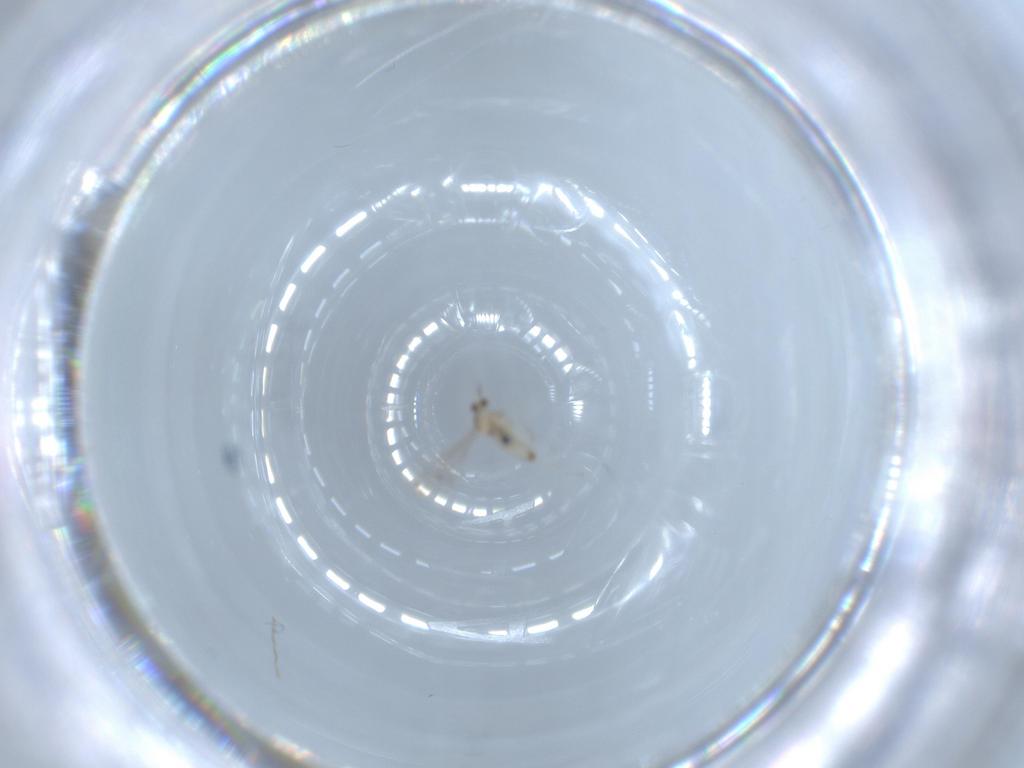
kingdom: Animalia
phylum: Arthropoda
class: Insecta
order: Diptera
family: Cecidomyiidae
